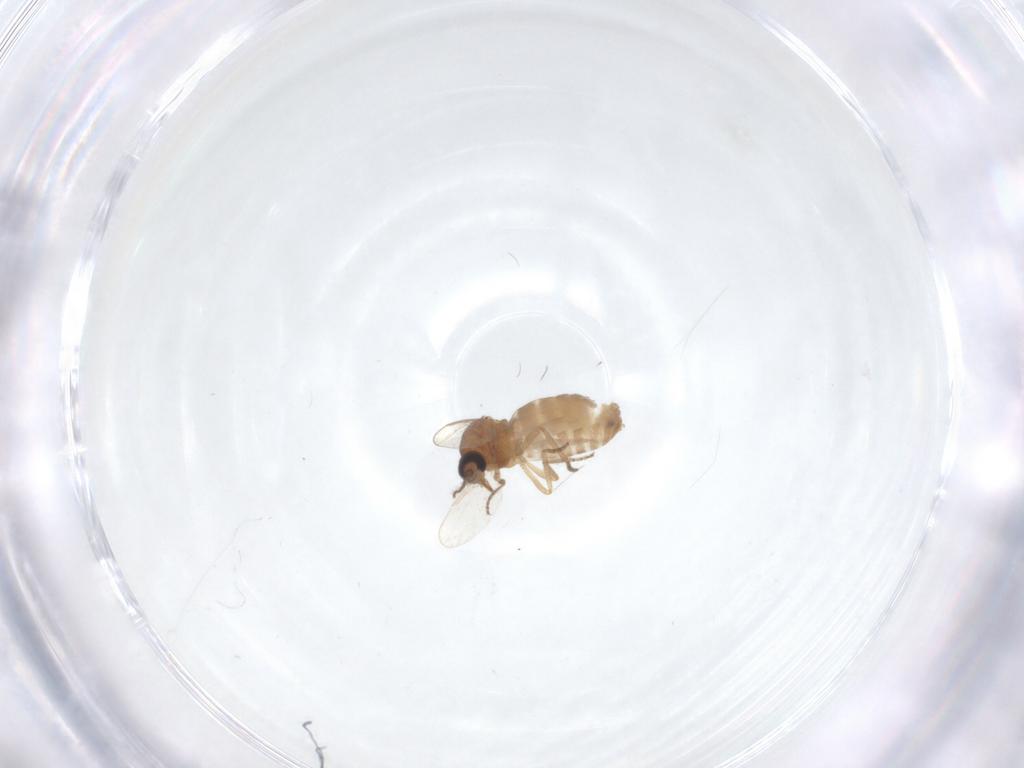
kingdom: Animalia
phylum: Arthropoda
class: Insecta
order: Diptera
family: Ceratopogonidae
